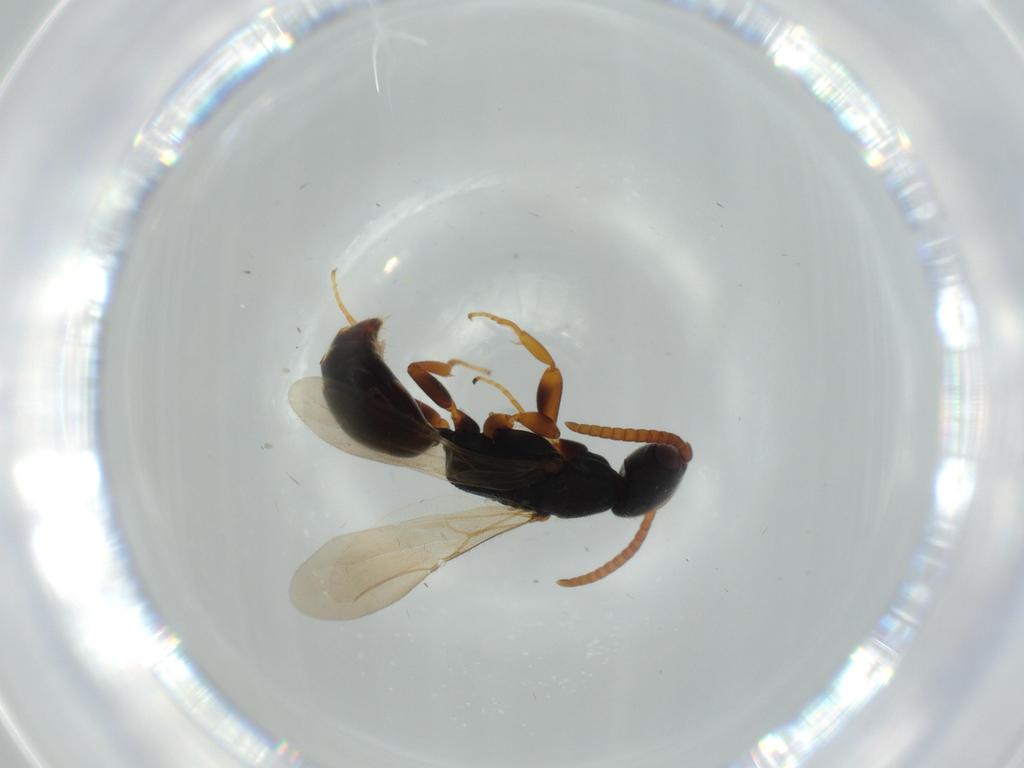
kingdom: Animalia
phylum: Arthropoda
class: Insecta
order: Hymenoptera
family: Bethylidae
